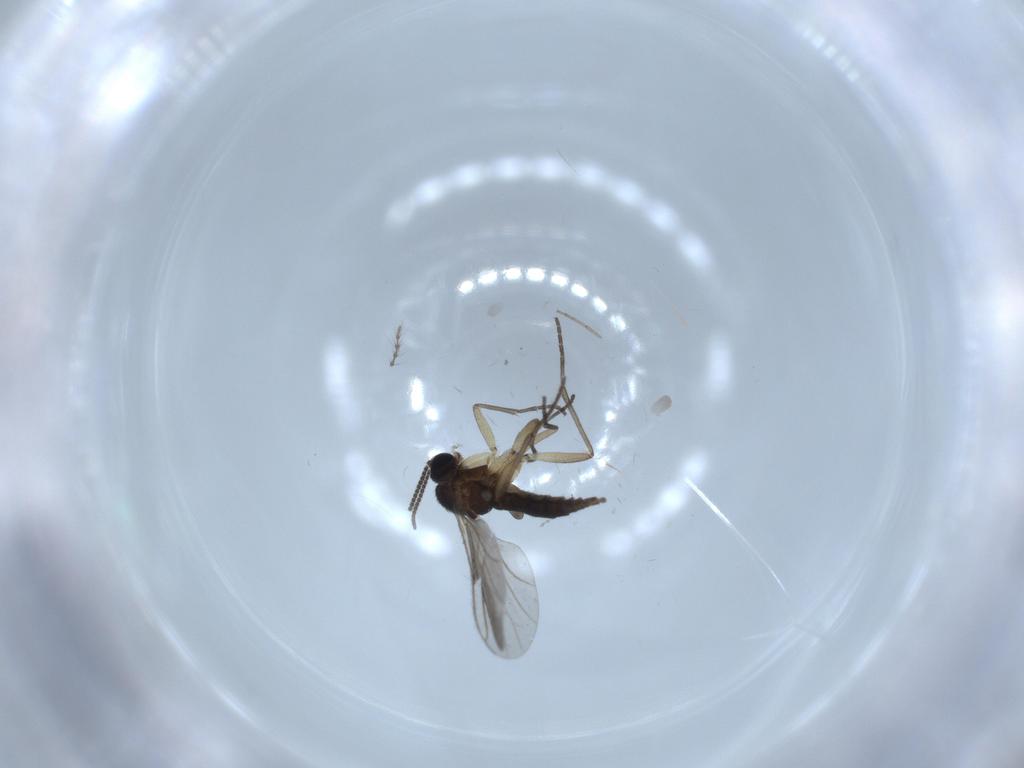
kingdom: Animalia
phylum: Arthropoda
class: Insecta
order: Diptera
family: Sciaridae
